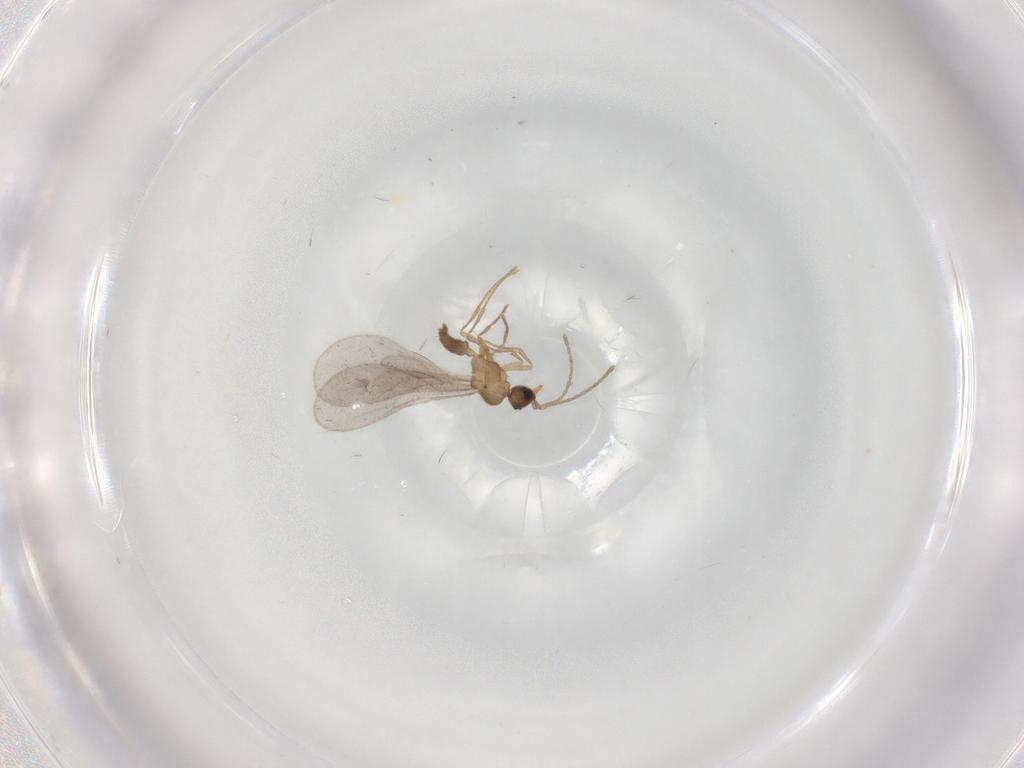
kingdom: Animalia
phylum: Arthropoda
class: Insecta
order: Hymenoptera
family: Formicidae
